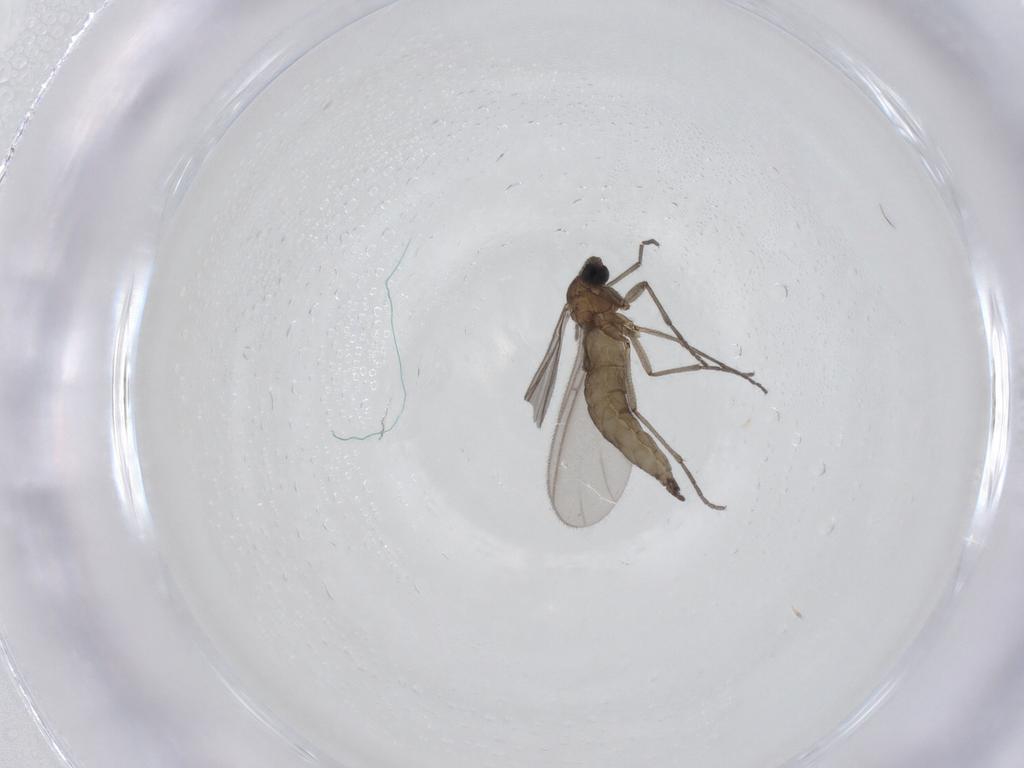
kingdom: Animalia
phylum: Arthropoda
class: Insecta
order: Diptera
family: Sciaridae
